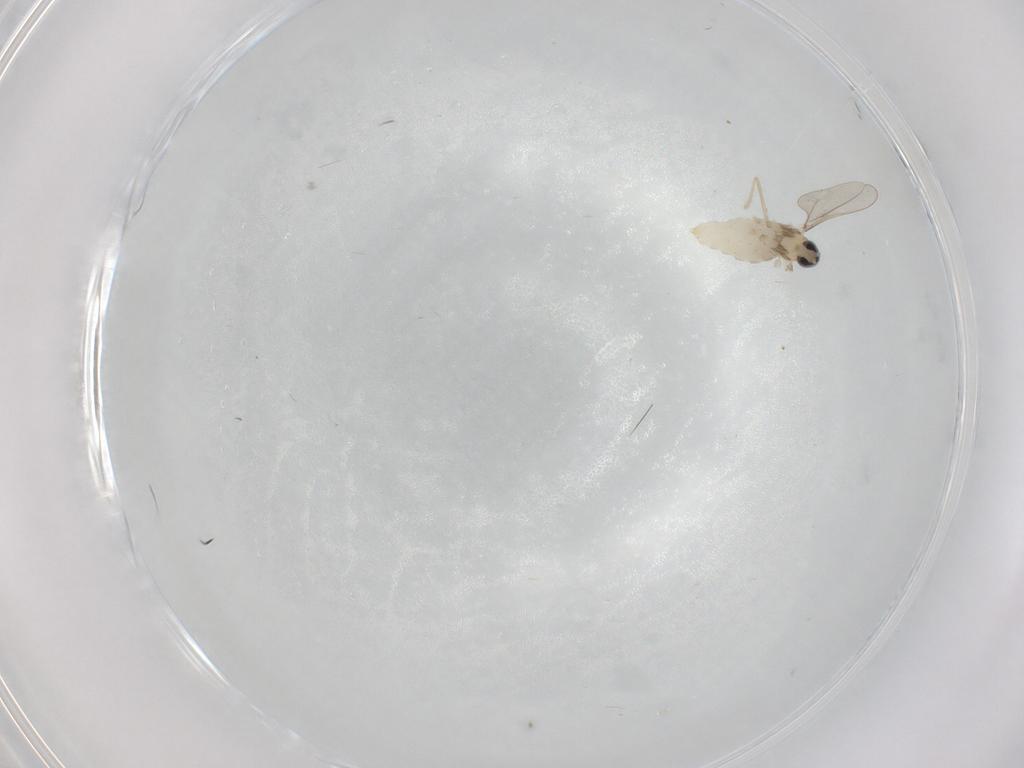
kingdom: Animalia
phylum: Arthropoda
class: Insecta
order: Diptera
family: Cecidomyiidae
